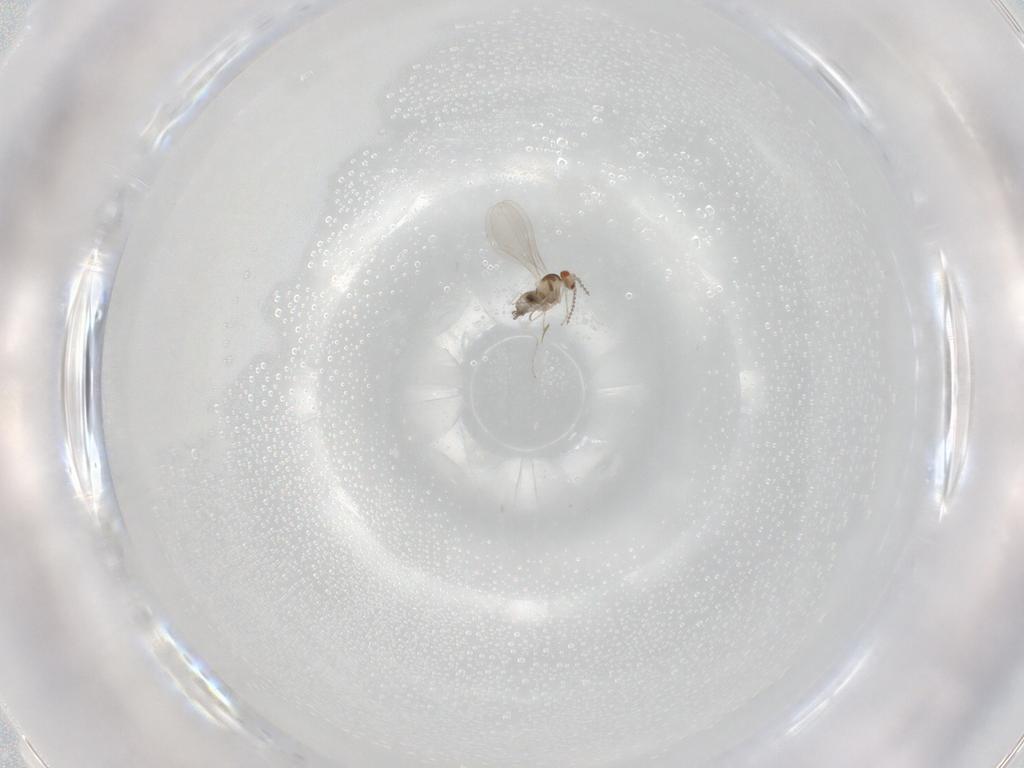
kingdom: Animalia
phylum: Arthropoda
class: Insecta
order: Diptera
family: Cecidomyiidae
